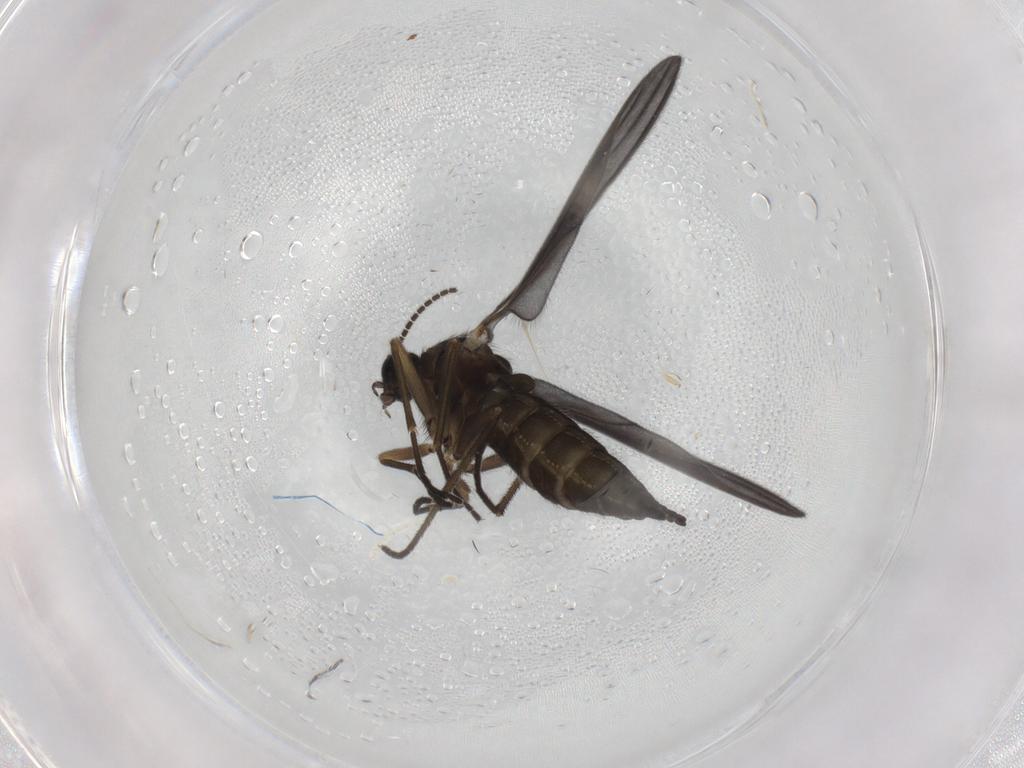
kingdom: Animalia
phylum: Arthropoda
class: Insecta
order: Diptera
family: Sciaridae
